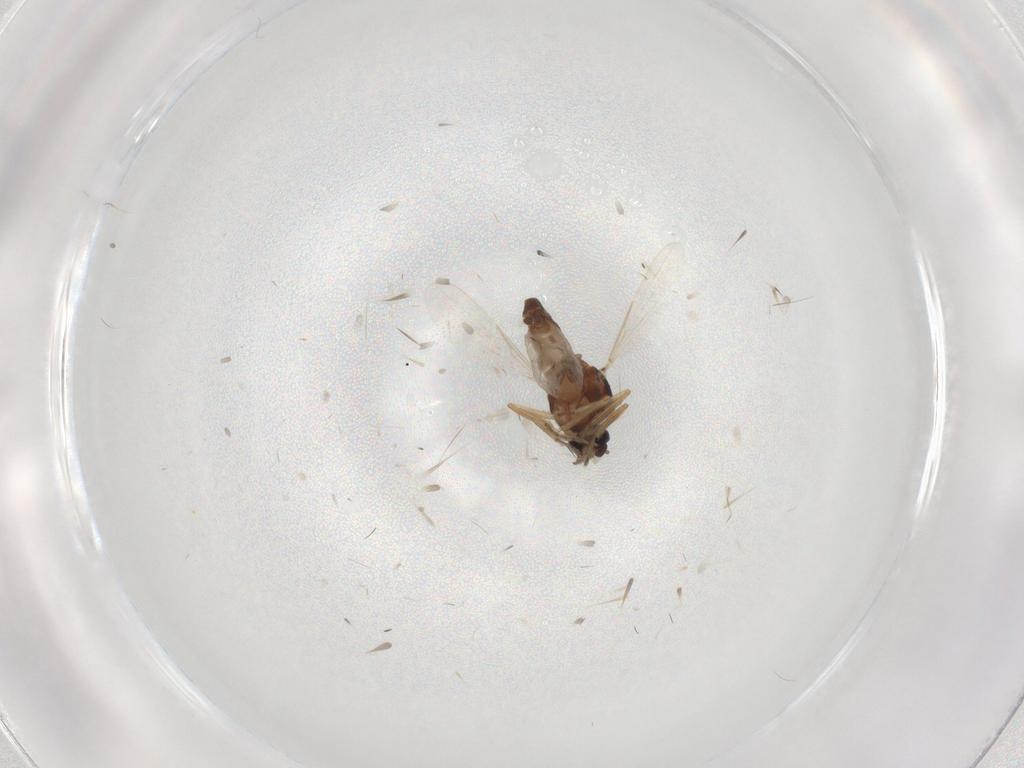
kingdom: Animalia
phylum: Arthropoda
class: Insecta
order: Diptera
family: Ceratopogonidae
